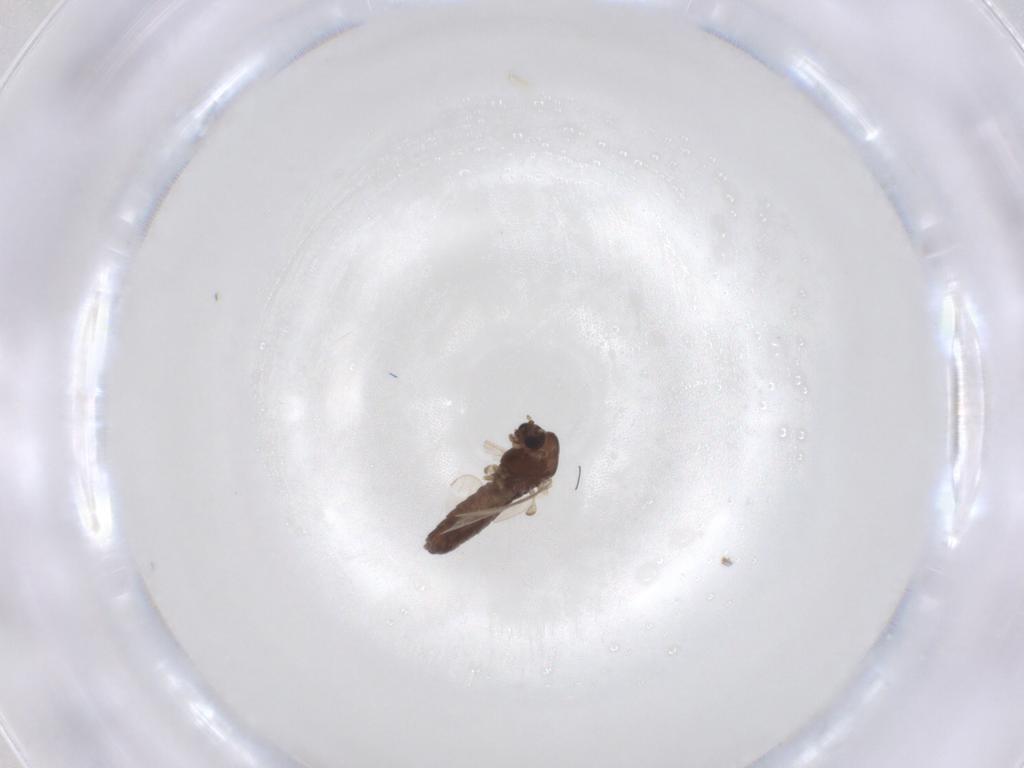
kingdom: Animalia
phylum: Arthropoda
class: Insecta
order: Diptera
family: Chironomidae
